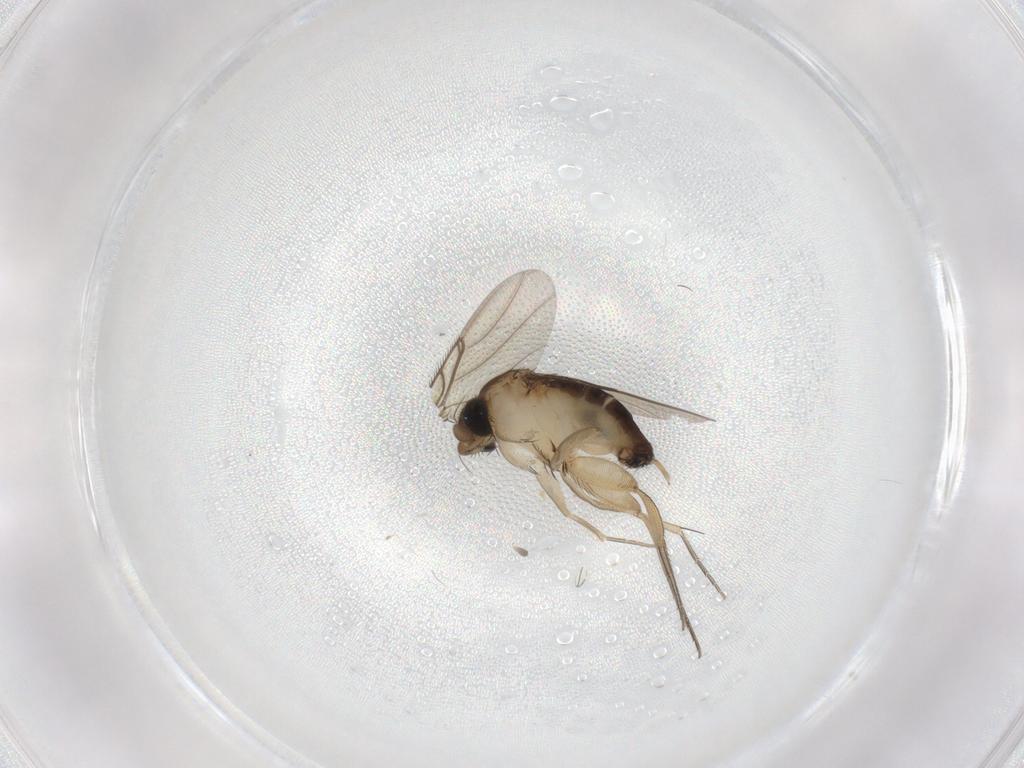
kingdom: Animalia
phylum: Arthropoda
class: Insecta
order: Diptera
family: Phoridae
